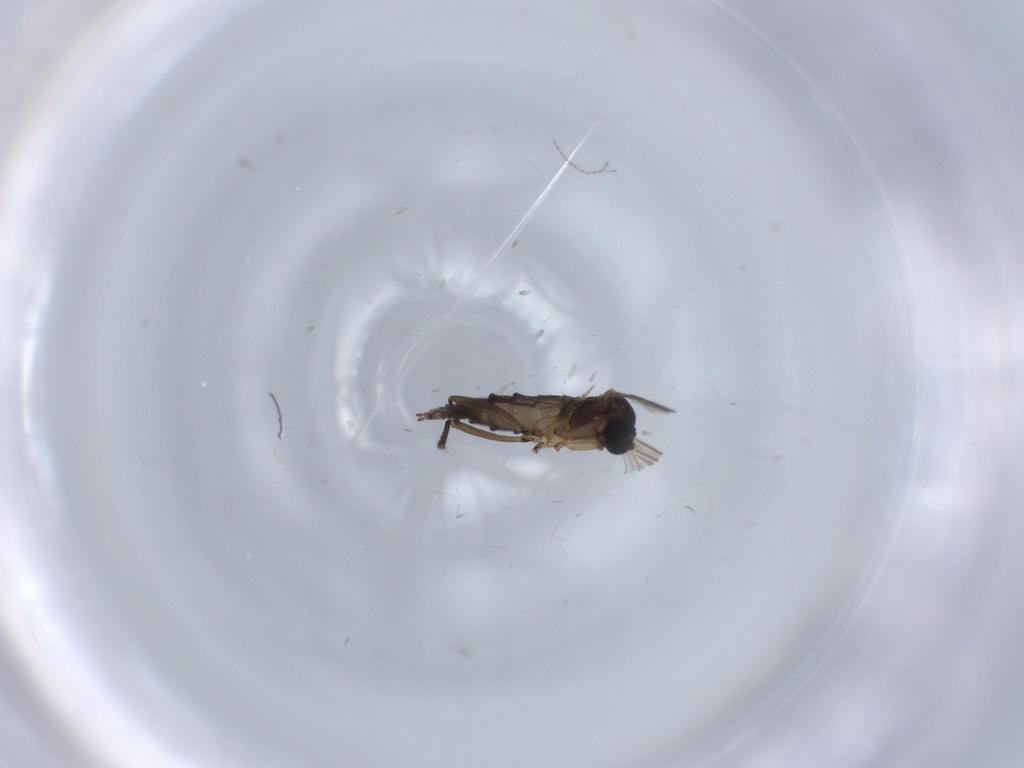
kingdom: Animalia
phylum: Arthropoda
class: Insecta
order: Diptera
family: Sciaridae
